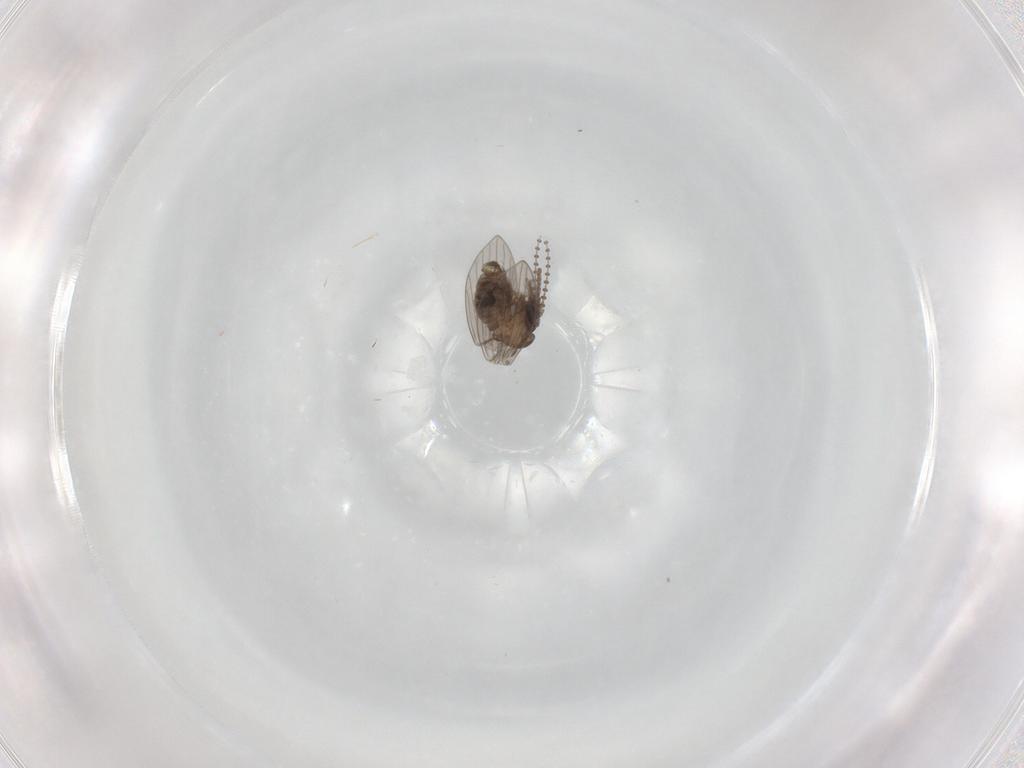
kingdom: Animalia
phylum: Arthropoda
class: Insecta
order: Diptera
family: Psychodidae
